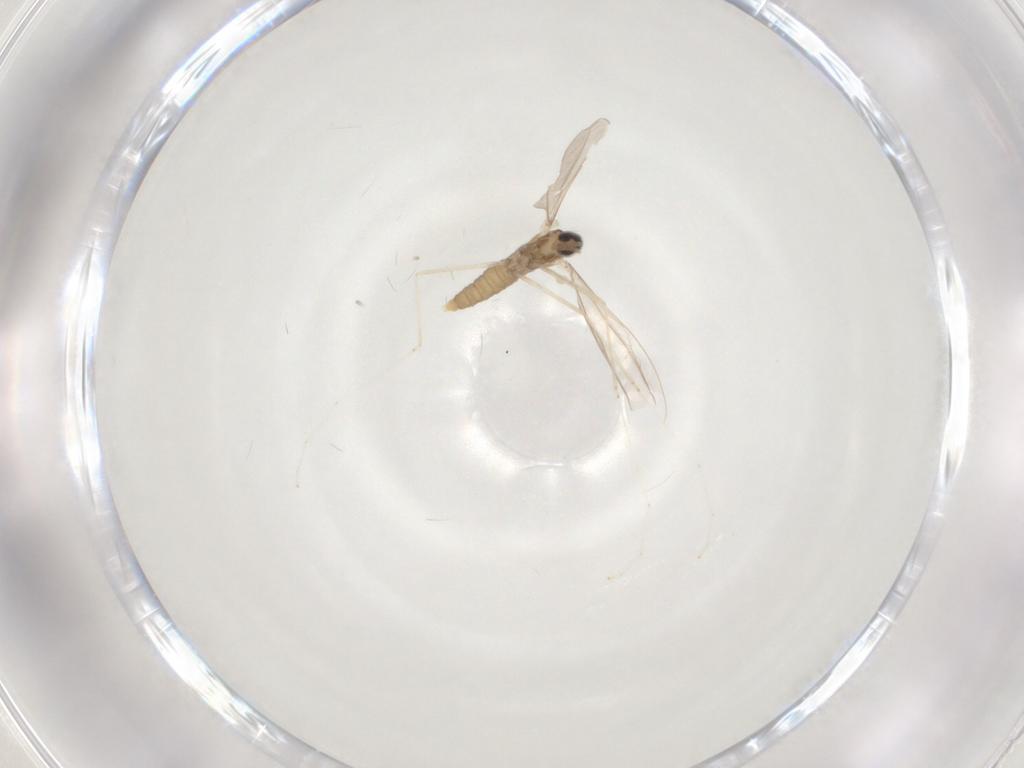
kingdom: Animalia
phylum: Arthropoda
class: Insecta
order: Diptera
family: Cecidomyiidae
